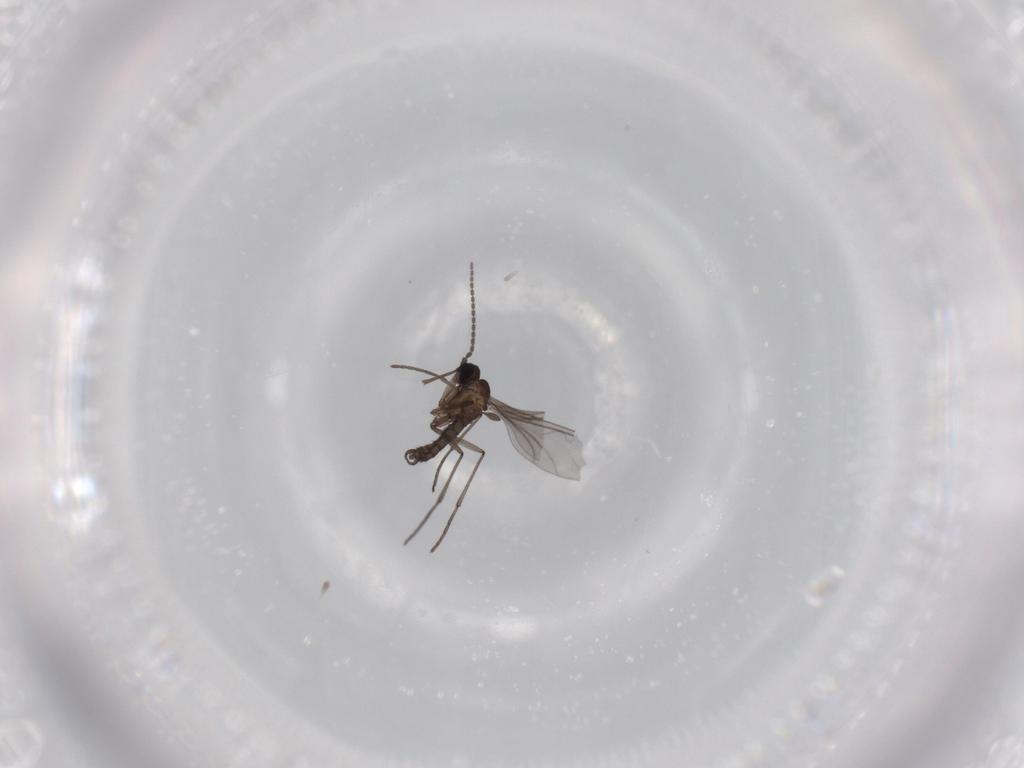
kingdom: Animalia
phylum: Arthropoda
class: Insecta
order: Diptera
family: Sciaridae
